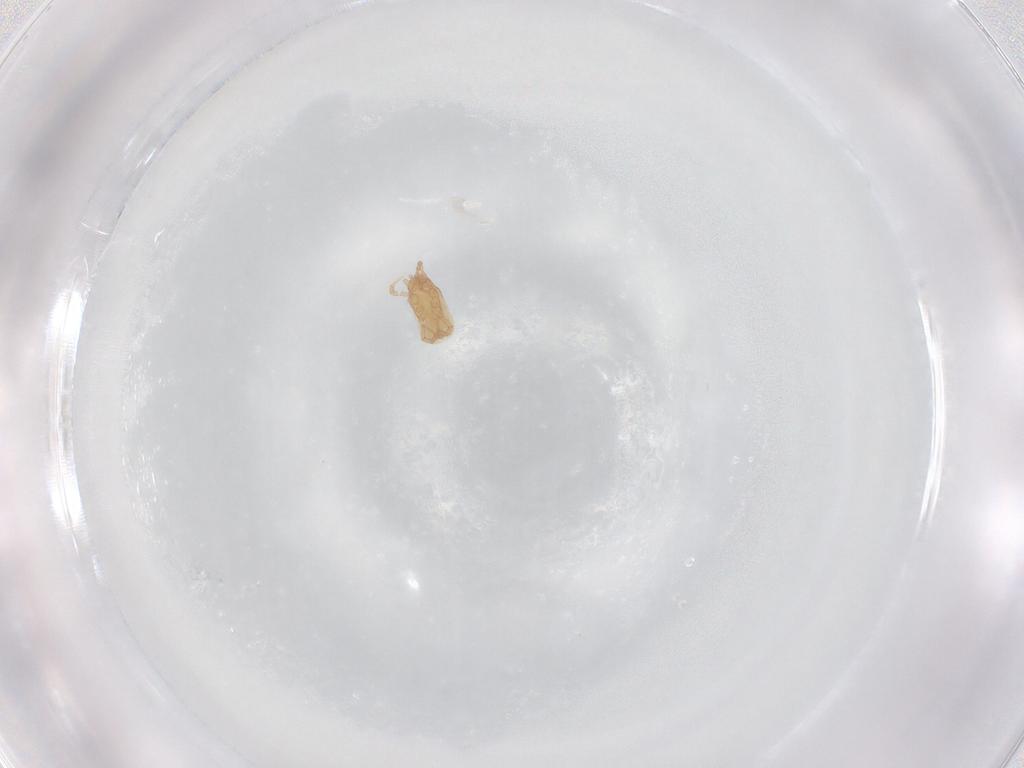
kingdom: Animalia
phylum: Arthropoda
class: Arachnida
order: Mesostigmata
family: Ascidae
